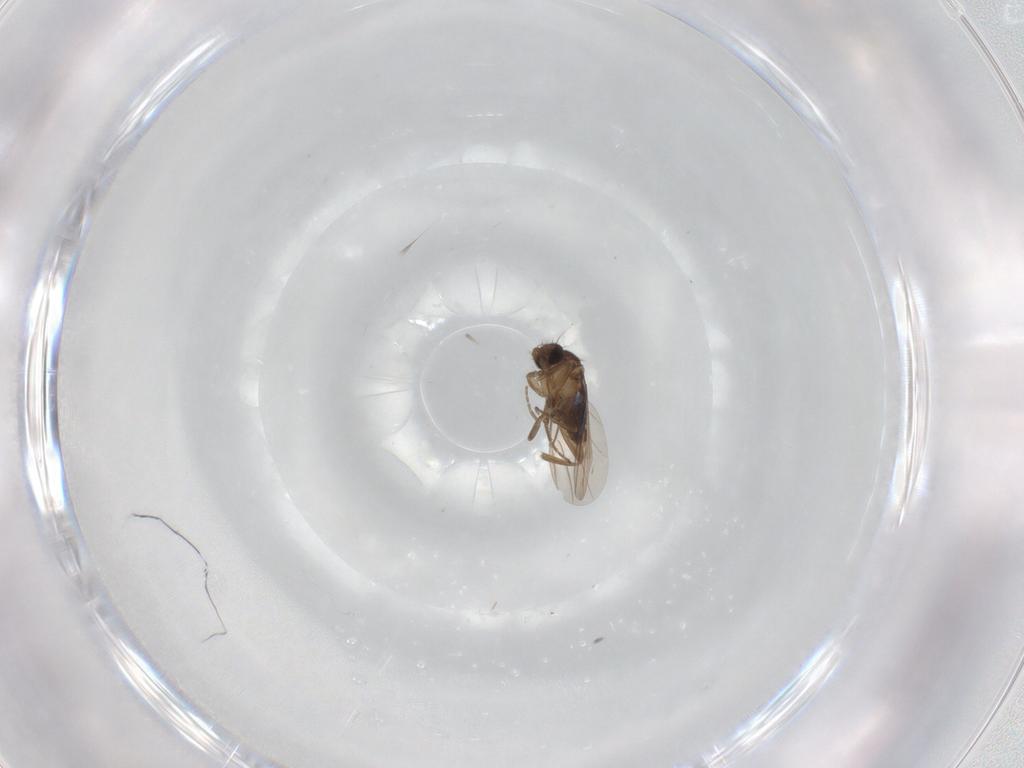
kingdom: Animalia
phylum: Arthropoda
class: Insecta
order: Diptera
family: Phoridae
